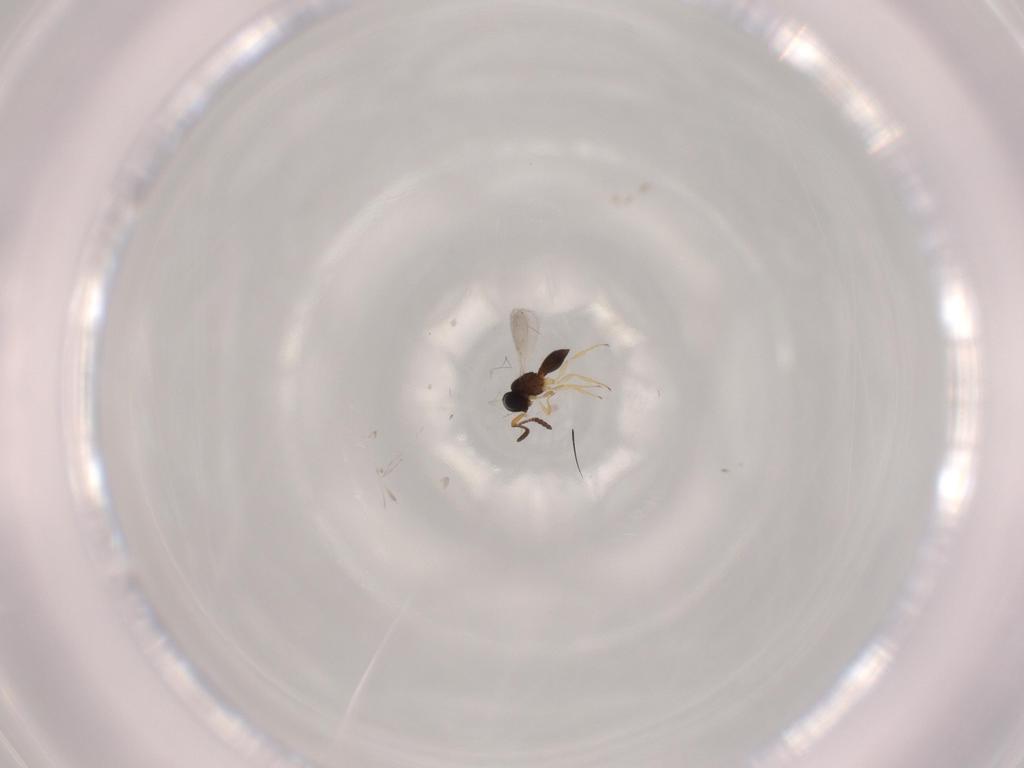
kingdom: Animalia
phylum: Arthropoda
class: Insecta
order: Hymenoptera
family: Scelionidae
